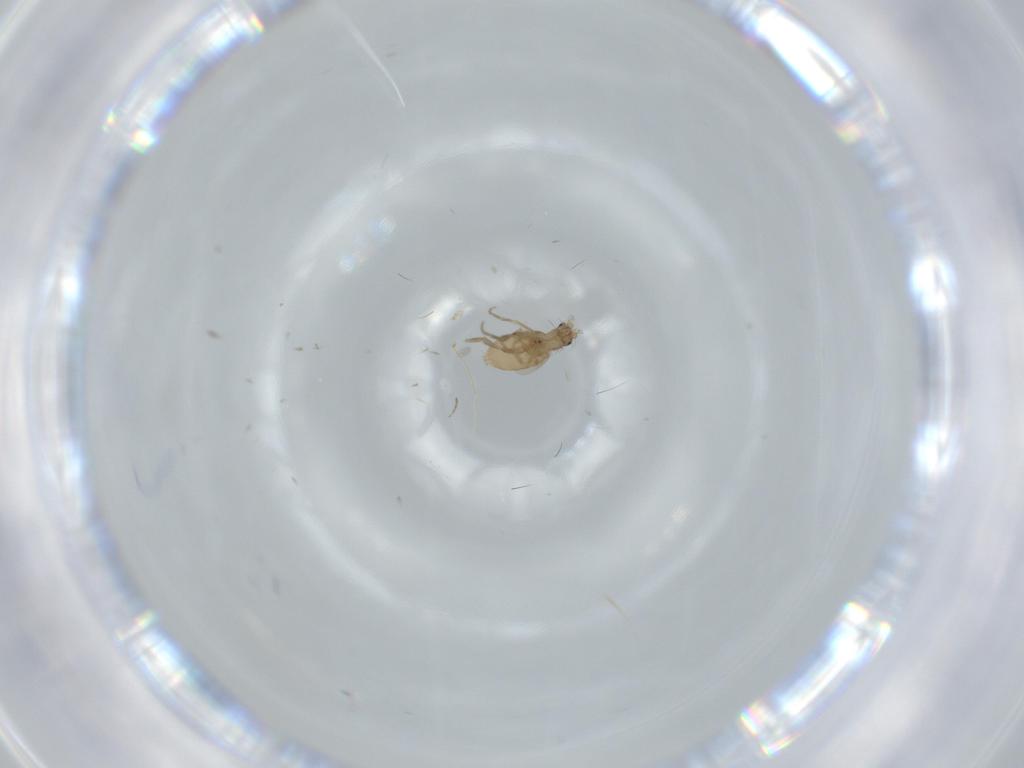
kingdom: Animalia
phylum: Arthropoda
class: Insecta
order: Diptera
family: Phoridae
